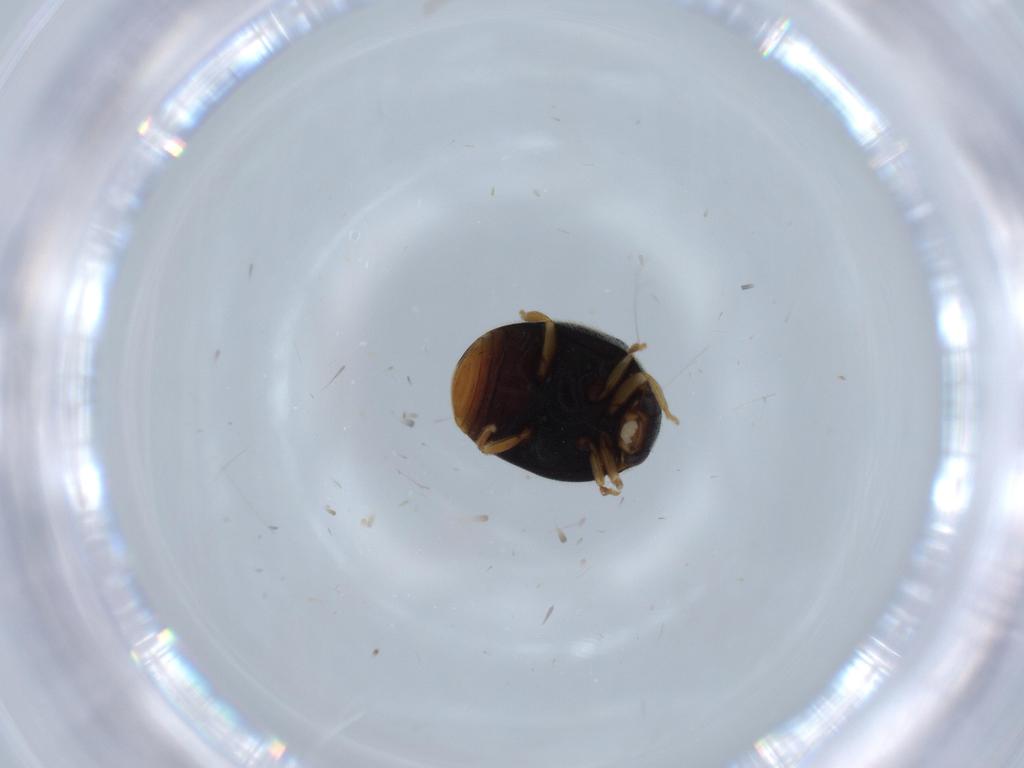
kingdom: Animalia
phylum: Arthropoda
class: Insecta
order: Coleoptera
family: Coccinellidae
